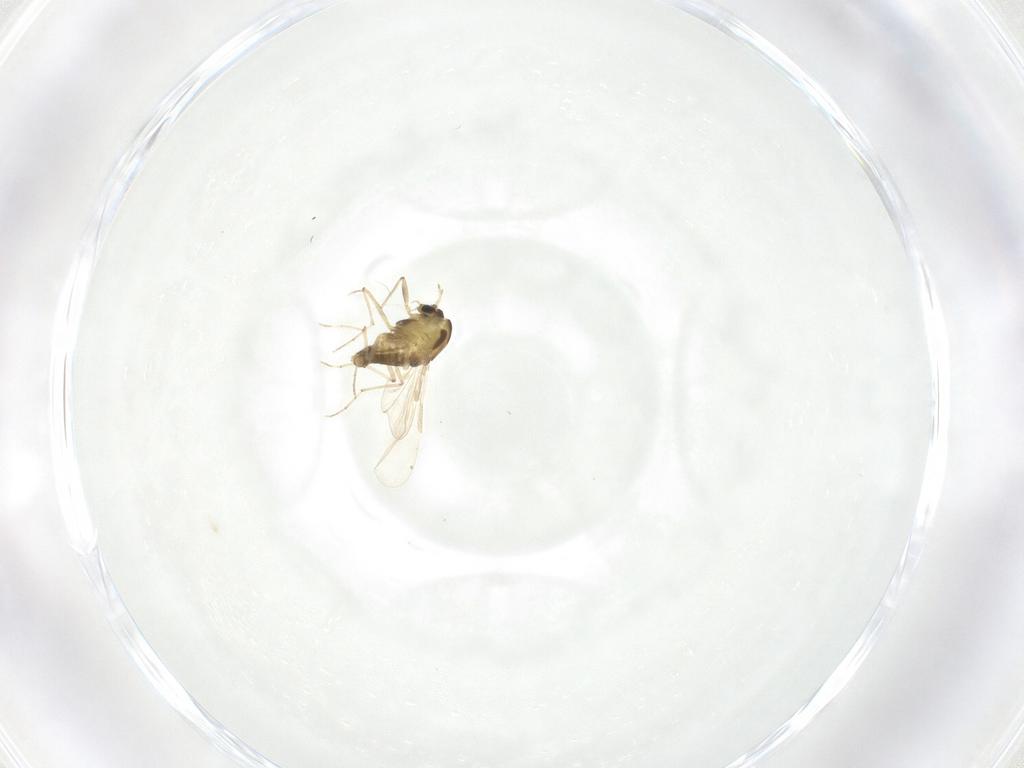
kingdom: Animalia
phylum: Arthropoda
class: Insecta
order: Diptera
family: Chironomidae
